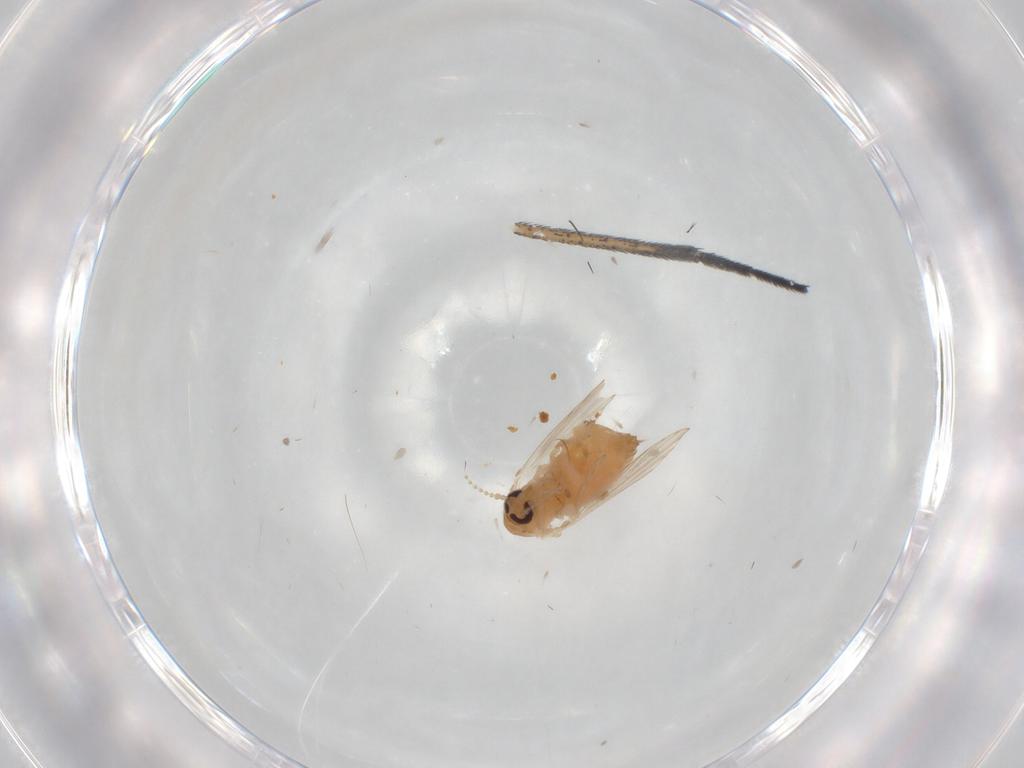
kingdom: Animalia
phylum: Arthropoda
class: Insecta
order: Diptera
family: Psychodidae
